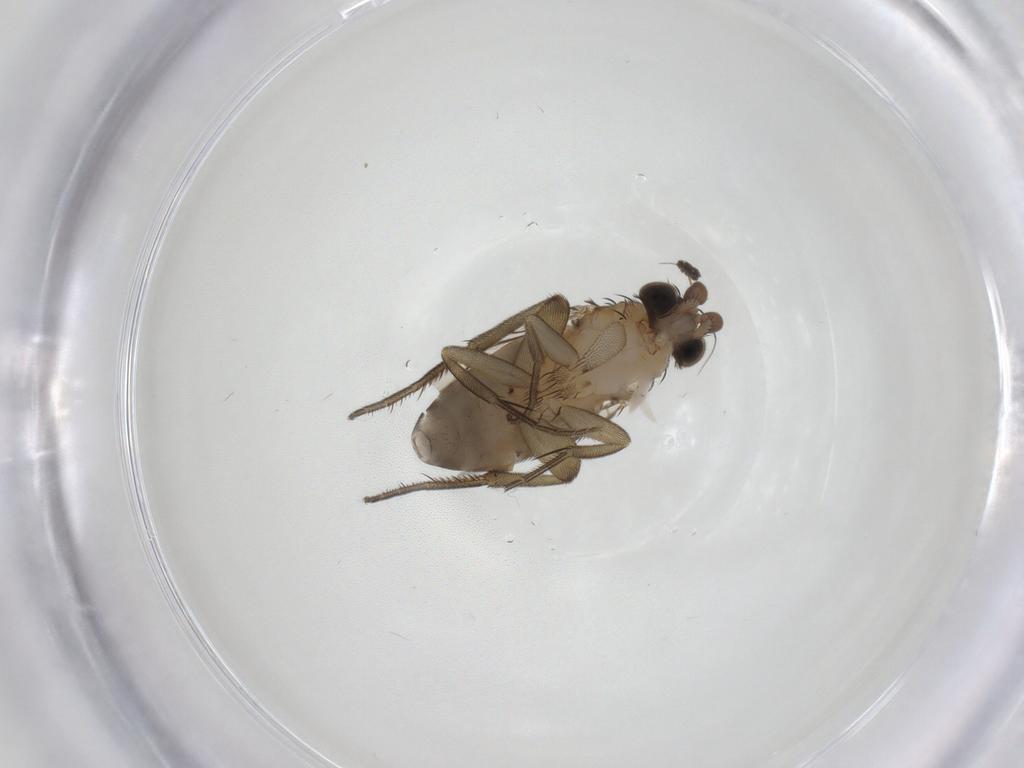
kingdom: Animalia
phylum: Arthropoda
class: Insecta
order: Diptera
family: Phoridae
